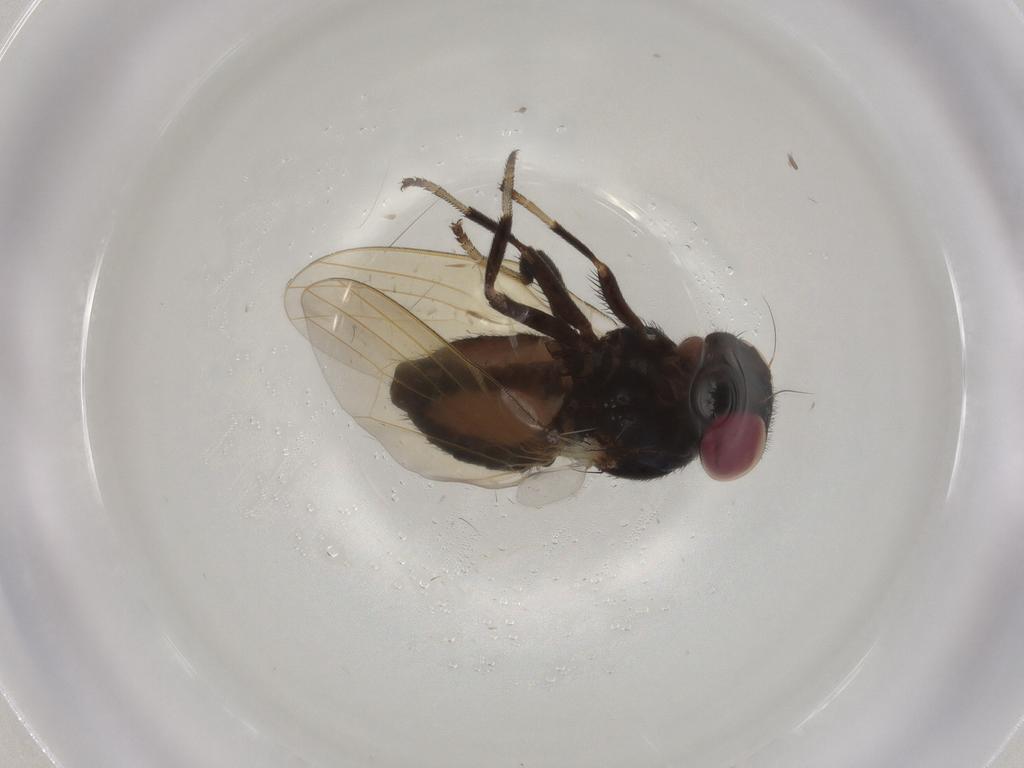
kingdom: Animalia
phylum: Arthropoda
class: Insecta
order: Diptera
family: Lonchaeidae
